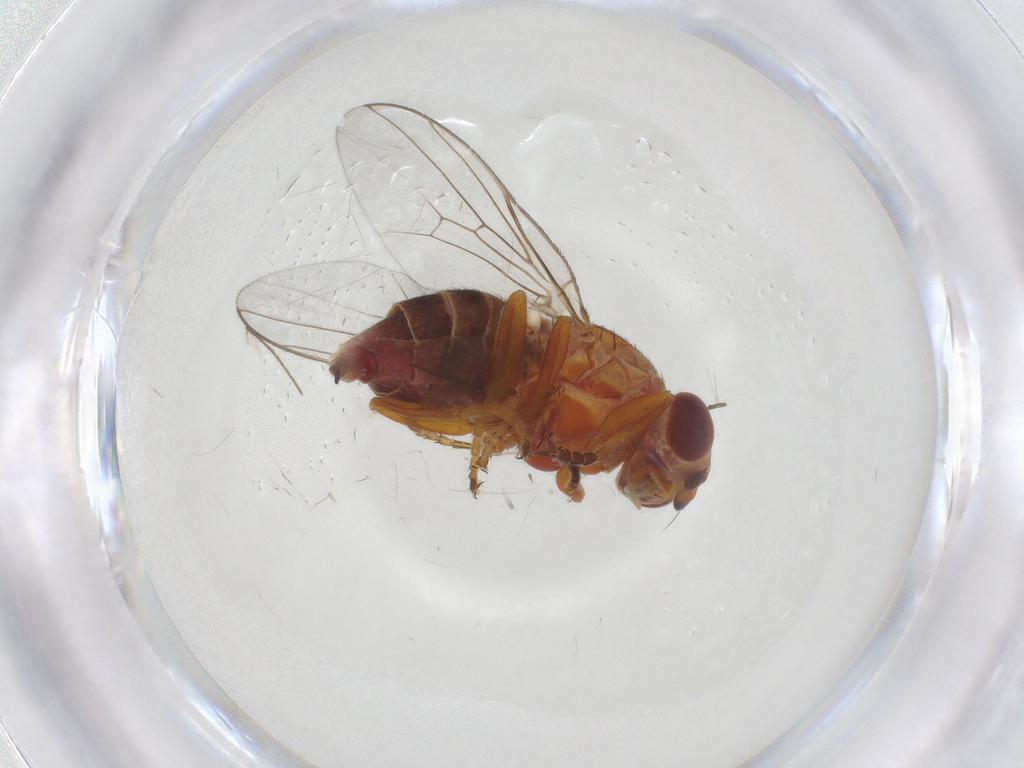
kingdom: Animalia
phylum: Arthropoda
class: Insecta
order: Diptera
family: Chloropidae
